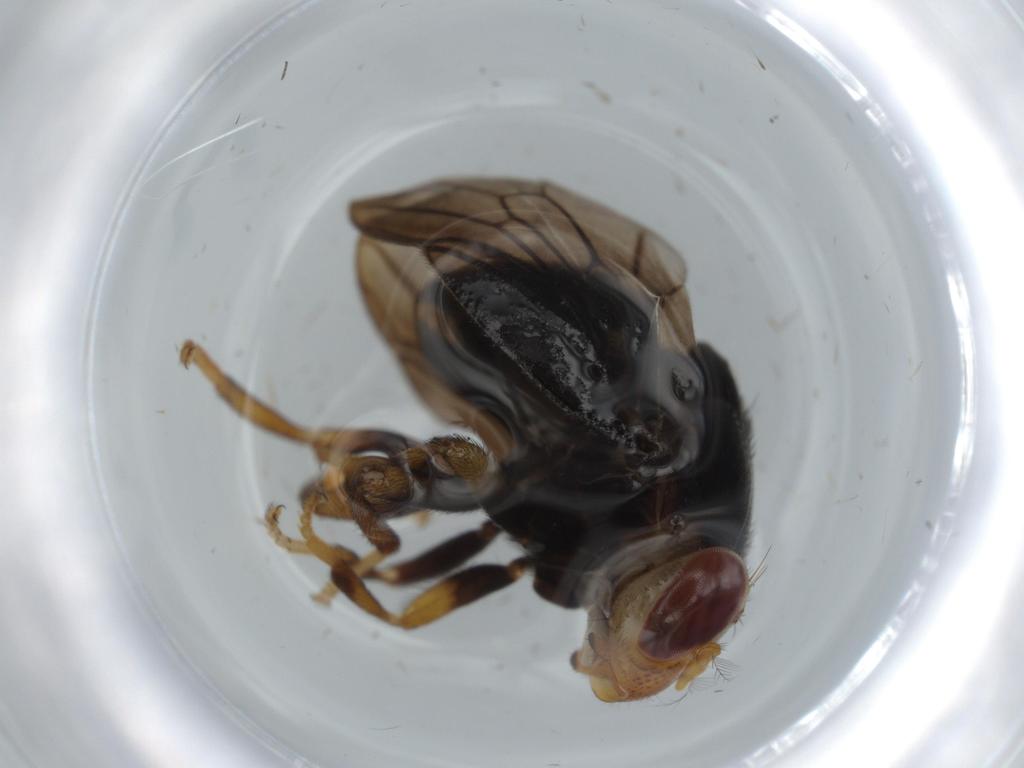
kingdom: Animalia
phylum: Arthropoda
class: Insecta
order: Diptera
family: Ulidiidae
